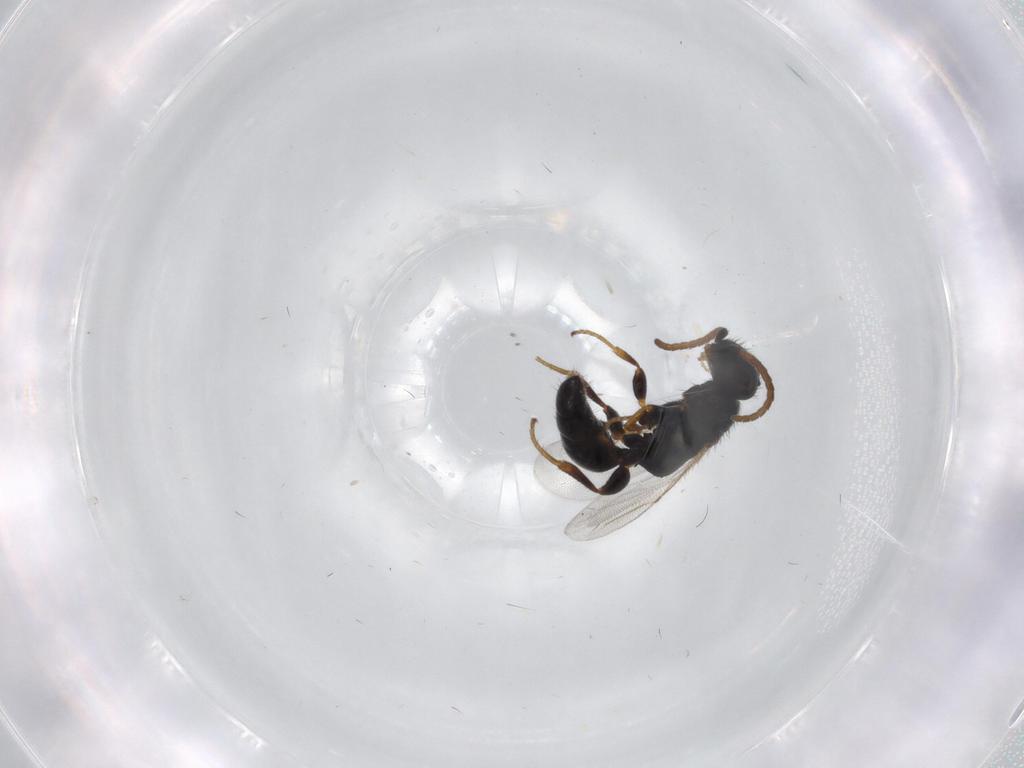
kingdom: Animalia
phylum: Arthropoda
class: Insecta
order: Hymenoptera
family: Bethylidae
